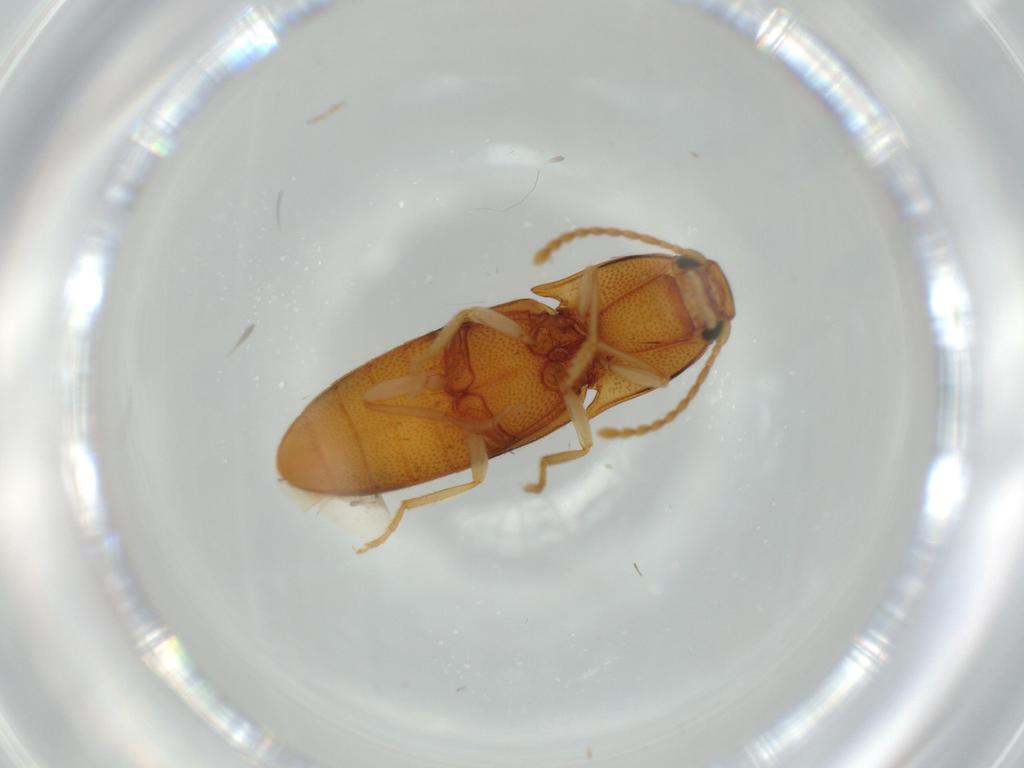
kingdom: Animalia
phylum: Arthropoda
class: Insecta
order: Coleoptera
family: Elateridae
